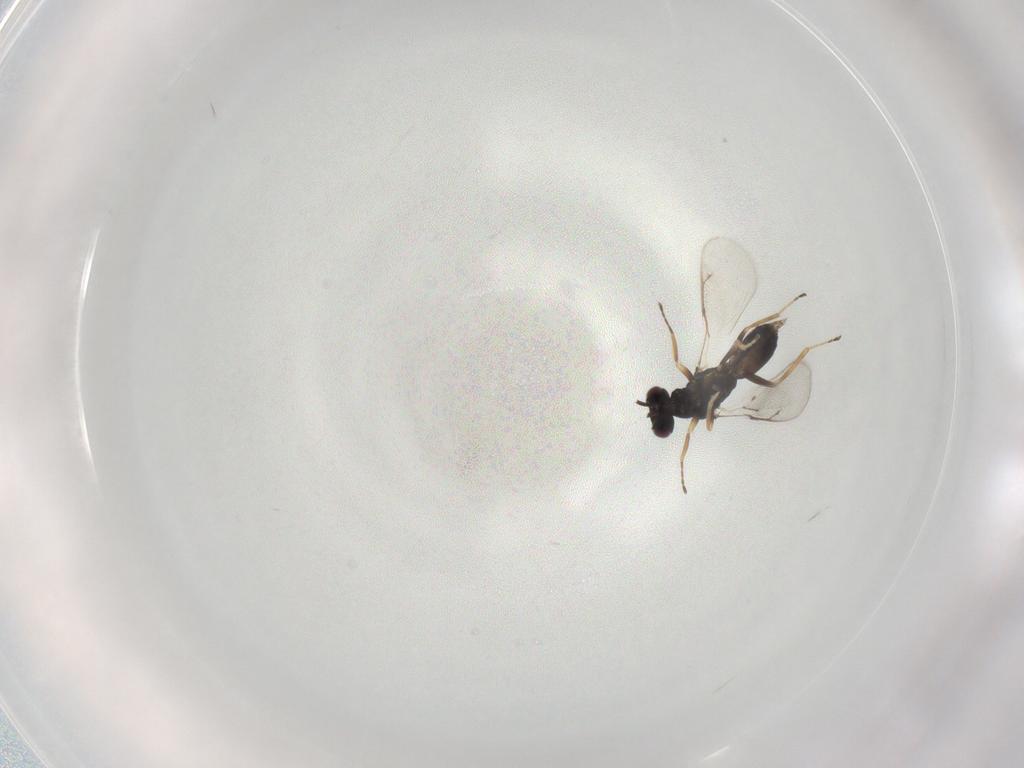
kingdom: Animalia
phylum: Arthropoda
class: Insecta
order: Hymenoptera
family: Eulophidae
